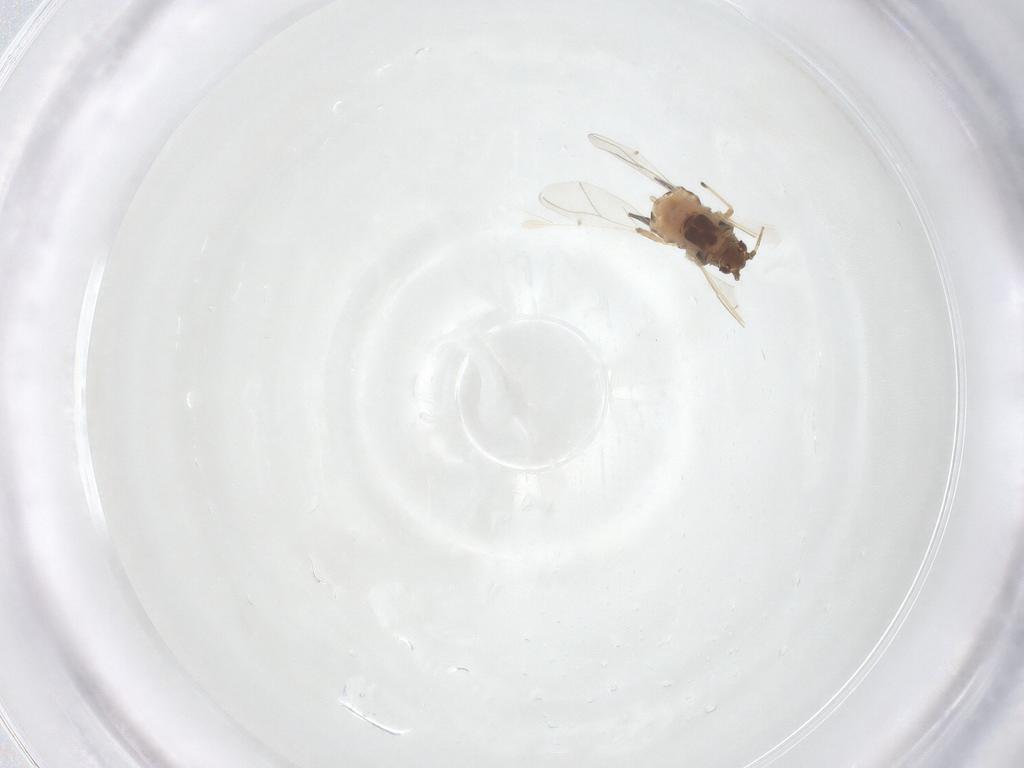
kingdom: Animalia
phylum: Arthropoda
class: Insecta
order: Hemiptera
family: Aphididae
